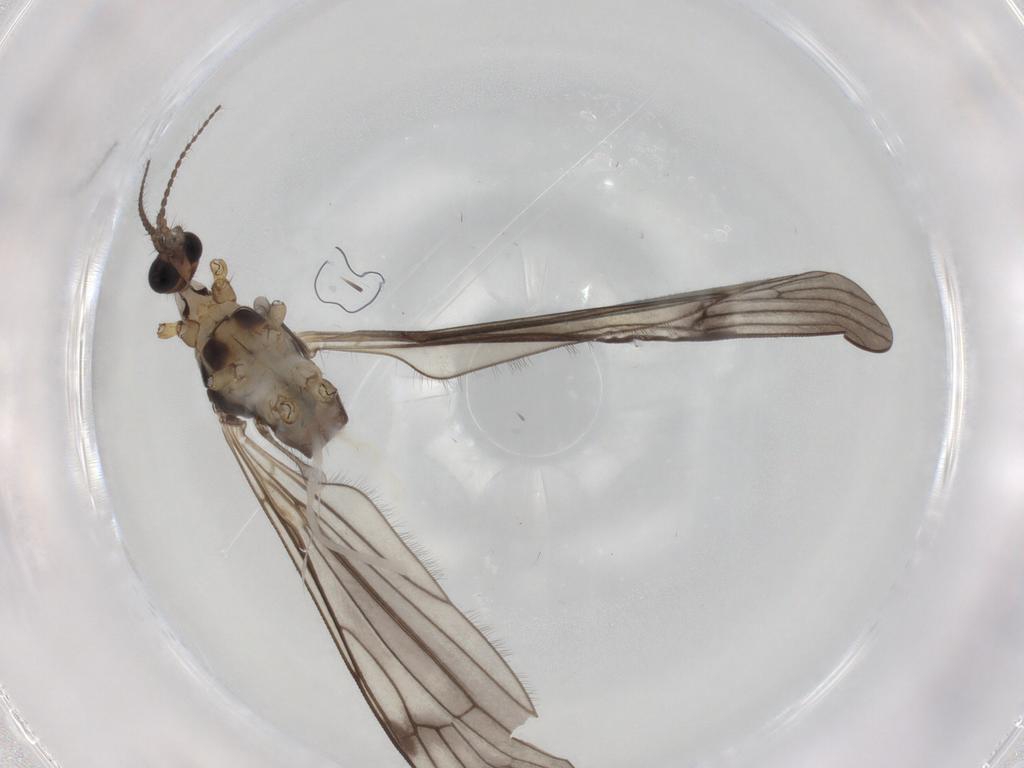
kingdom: Animalia
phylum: Arthropoda
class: Insecta
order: Diptera
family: Limoniidae
